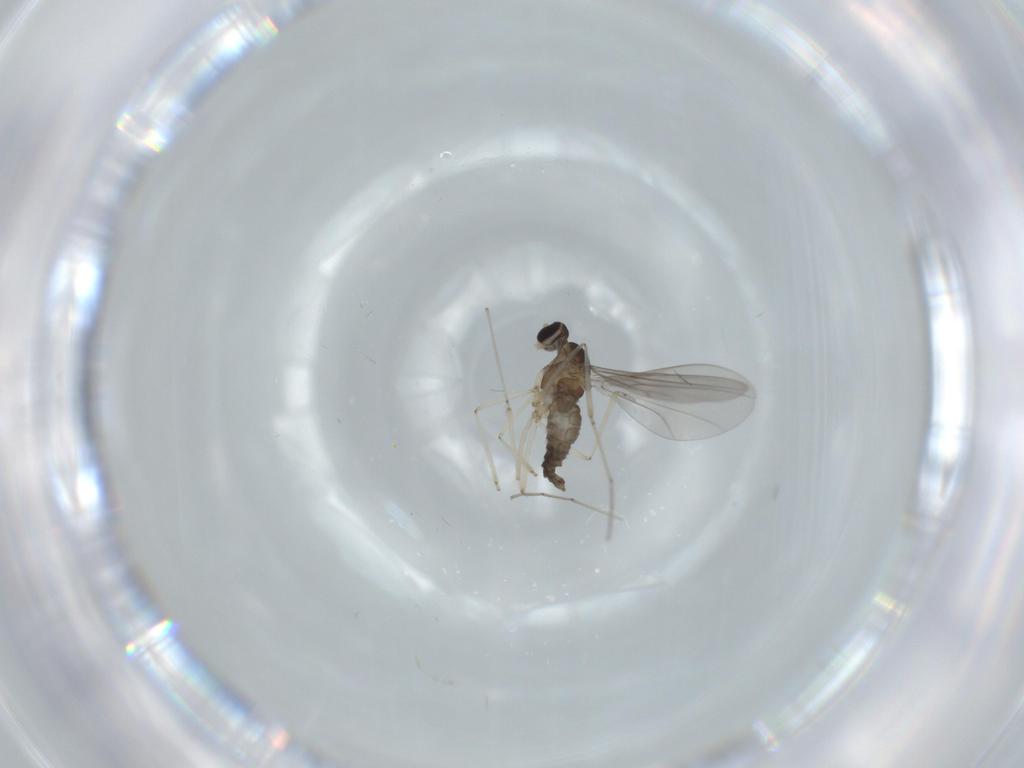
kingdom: Animalia
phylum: Arthropoda
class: Insecta
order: Diptera
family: Cecidomyiidae
